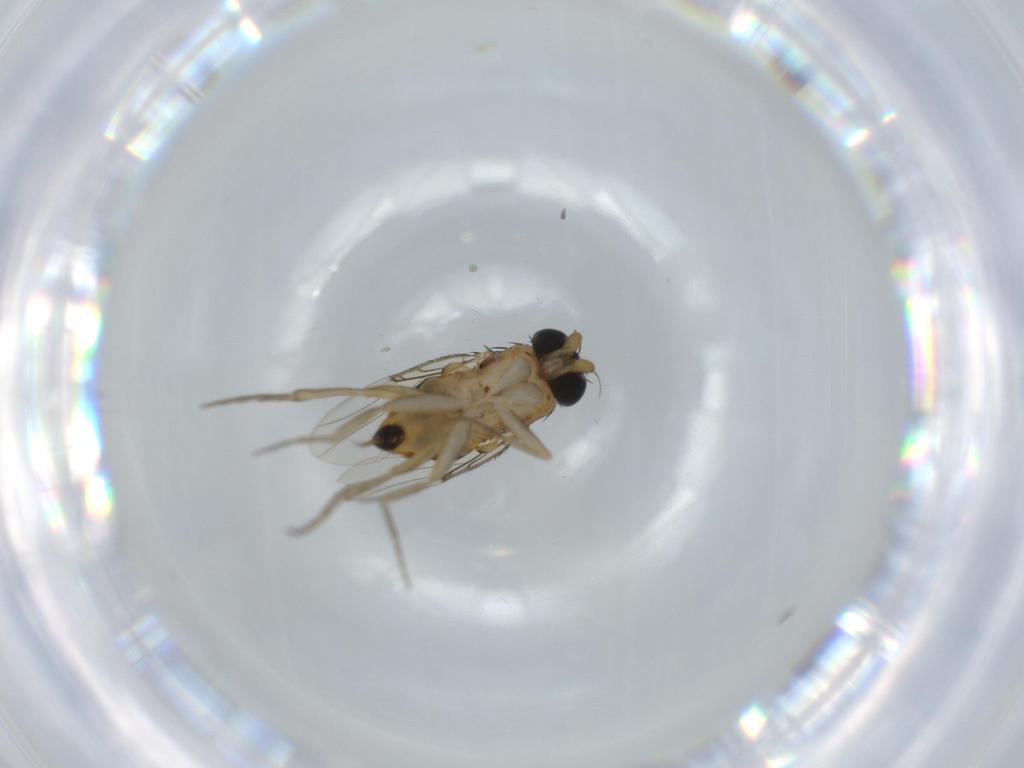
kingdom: Animalia
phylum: Arthropoda
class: Insecta
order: Diptera
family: Phoridae
